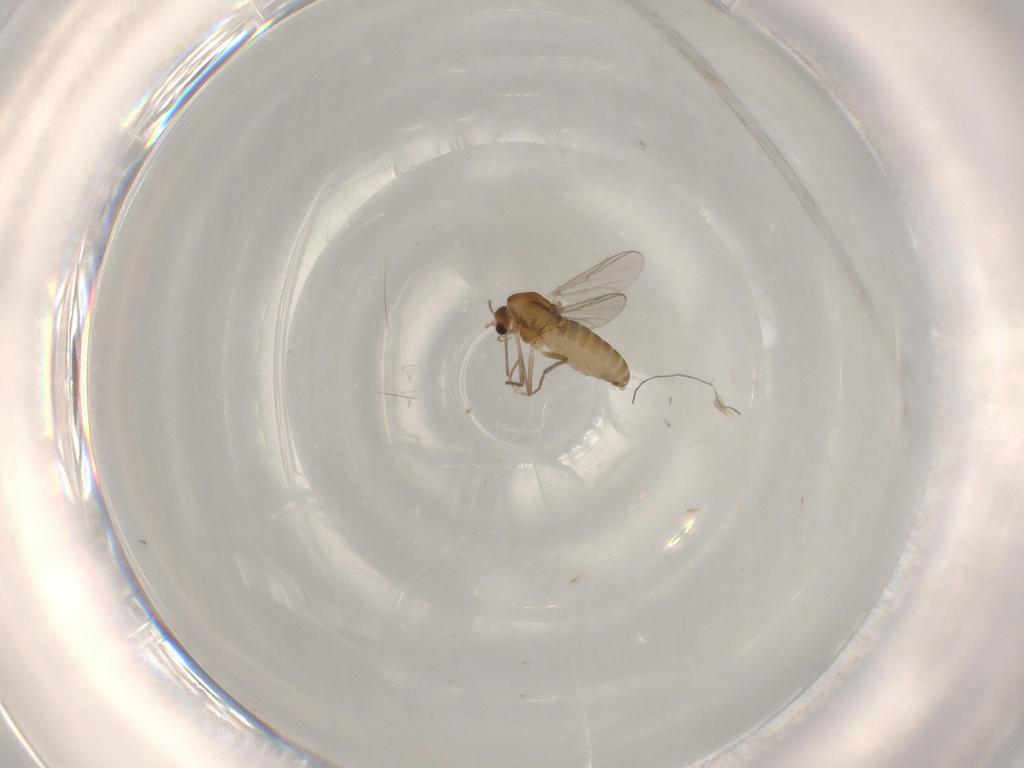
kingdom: Animalia
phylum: Arthropoda
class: Insecta
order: Diptera
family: Chironomidae
